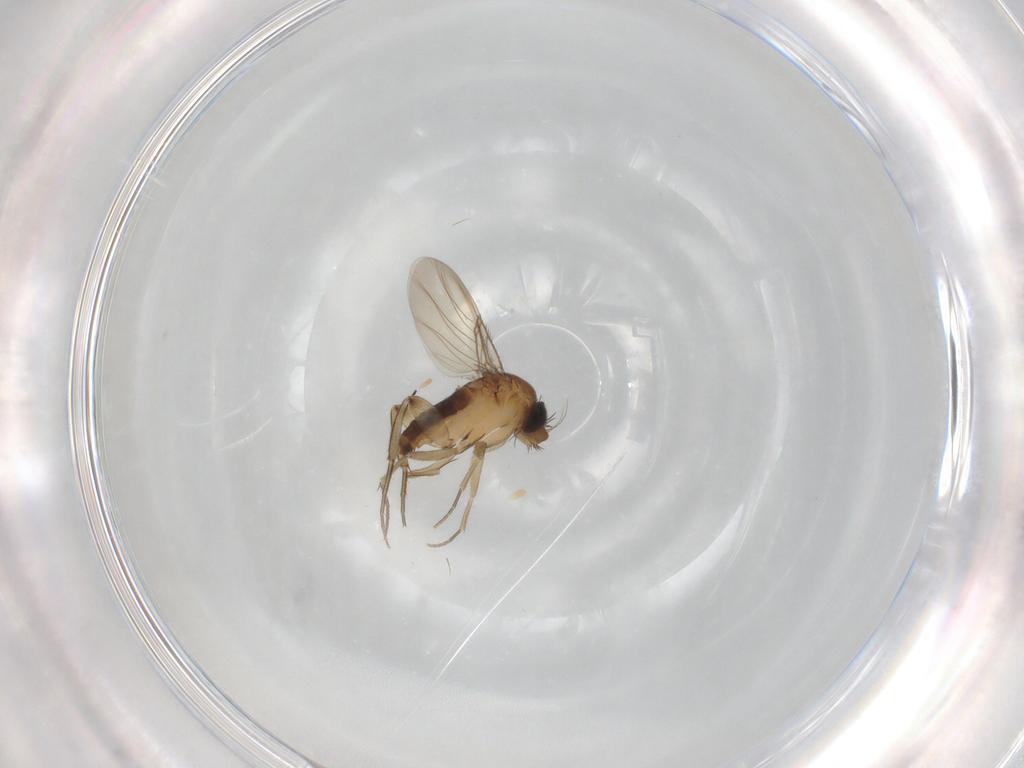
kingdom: Animalia
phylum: Arthropoda
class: Insecta
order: Diptera
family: Phoridae
